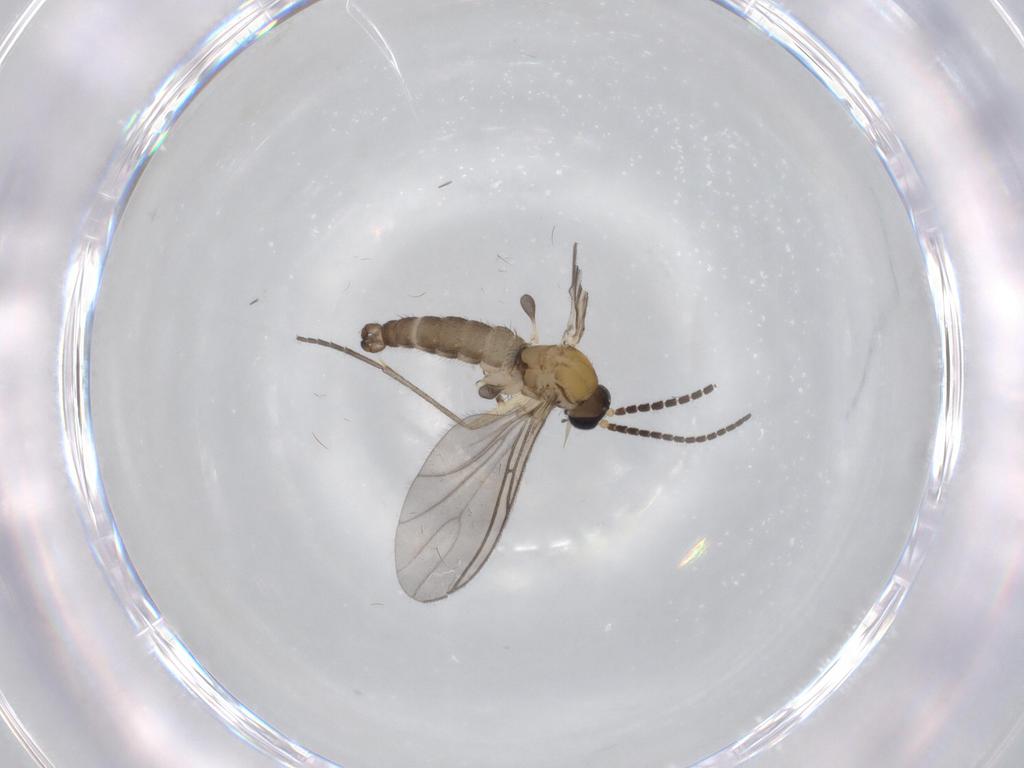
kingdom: Animalia
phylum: Arthropoda
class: Insecta
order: Diptera
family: Sciaridae
